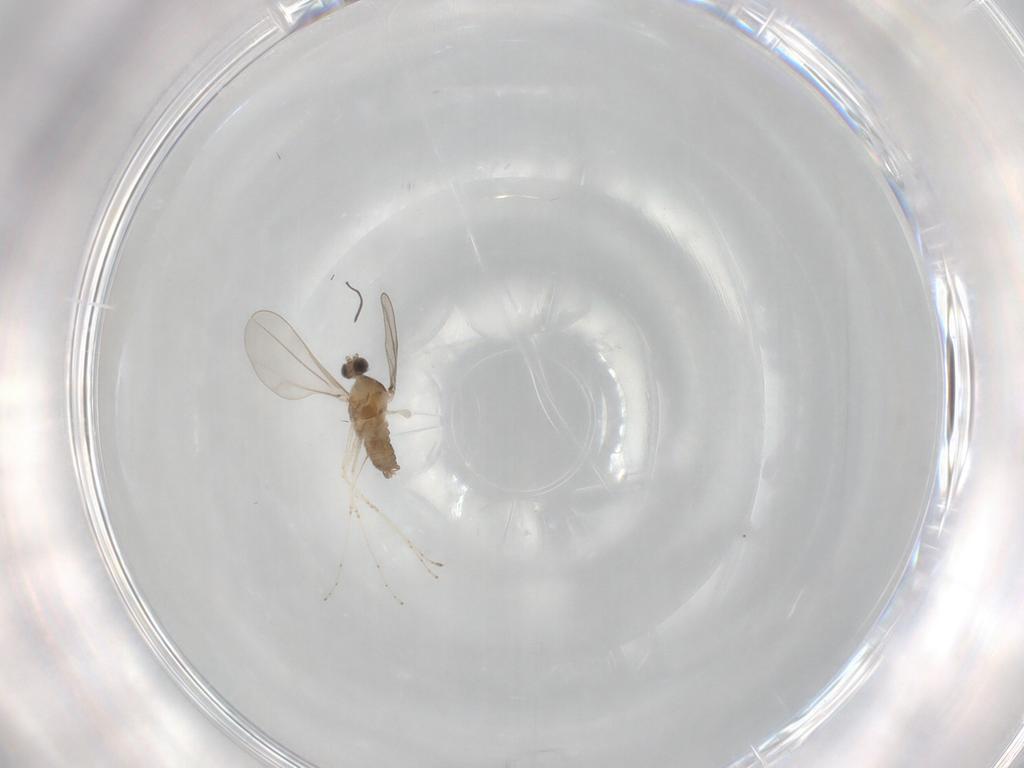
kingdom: Animalia
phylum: Arthropoda
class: Insecta
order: Diptera
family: Cecidomyiidae
